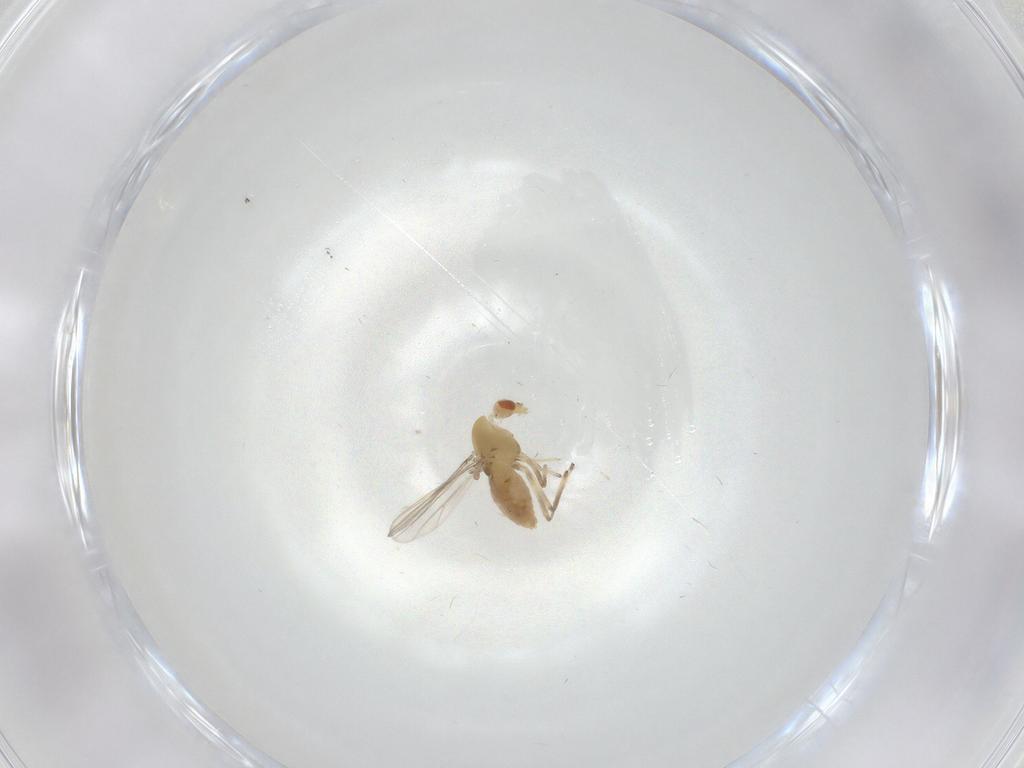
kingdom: Animalia
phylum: Arthropoda
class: Insecta
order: Diptera
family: Chironomidae
